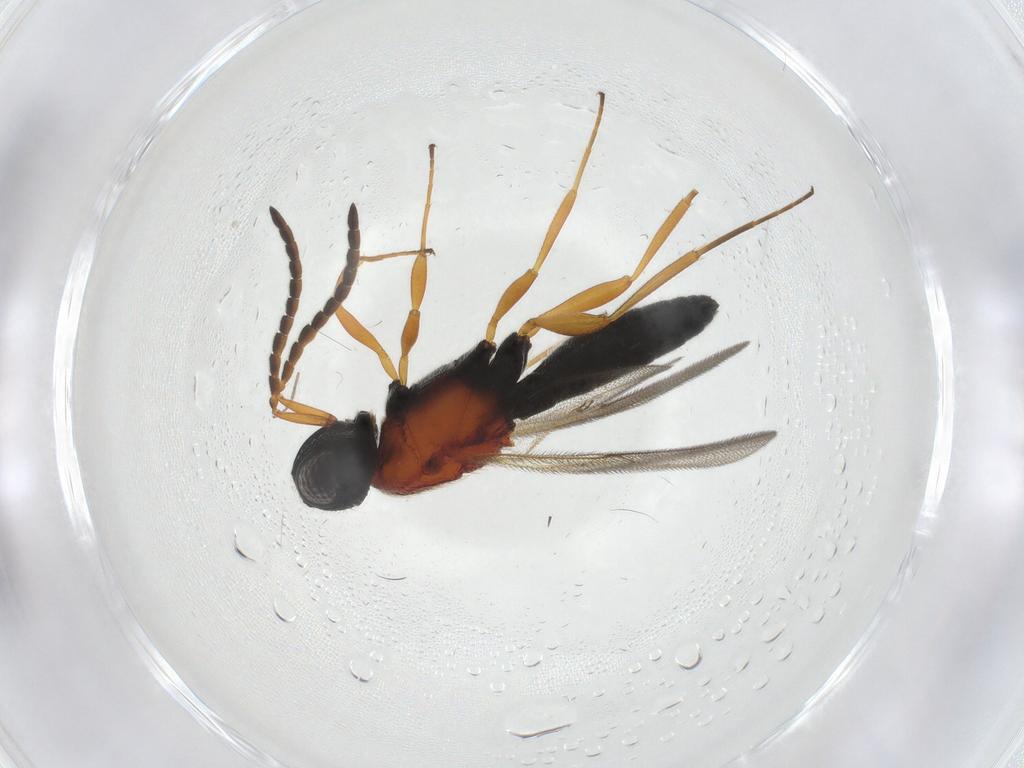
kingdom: Animalia
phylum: Arthropoda
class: Insecta
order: Hymenoptera
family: Scelionidae
